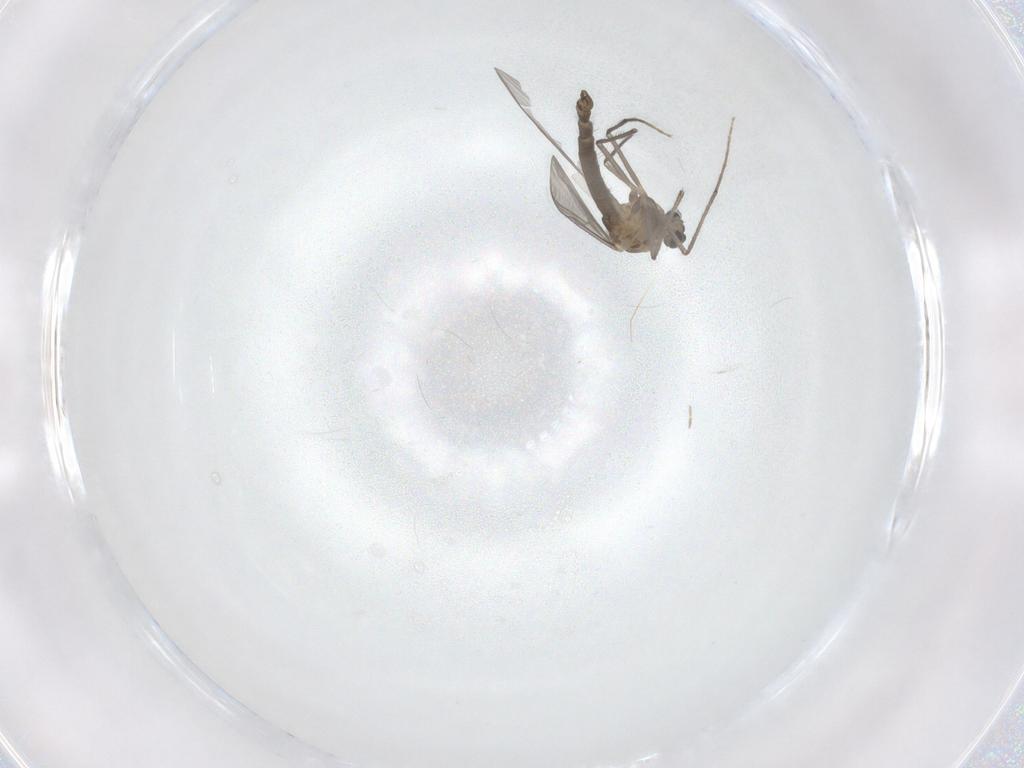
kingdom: Animalia
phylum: Arthropoda
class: Insecta
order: Diptera
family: Chironomidae
